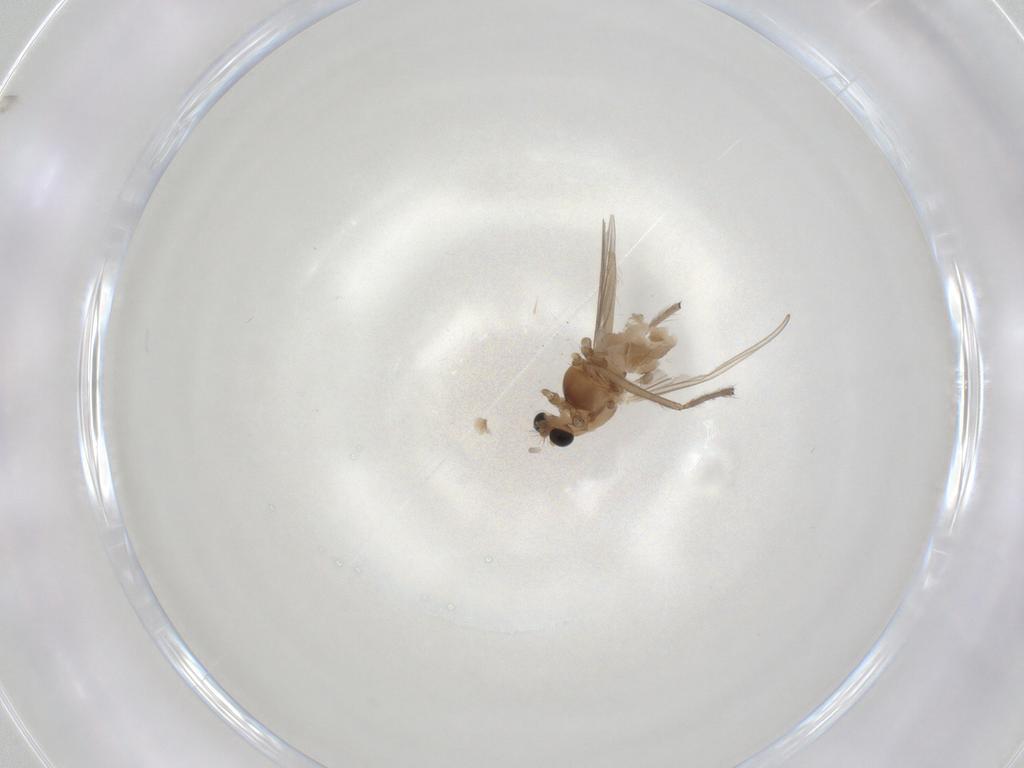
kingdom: Animalia
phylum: Arthropoda
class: Insecta
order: Diptera
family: Chironomidae
